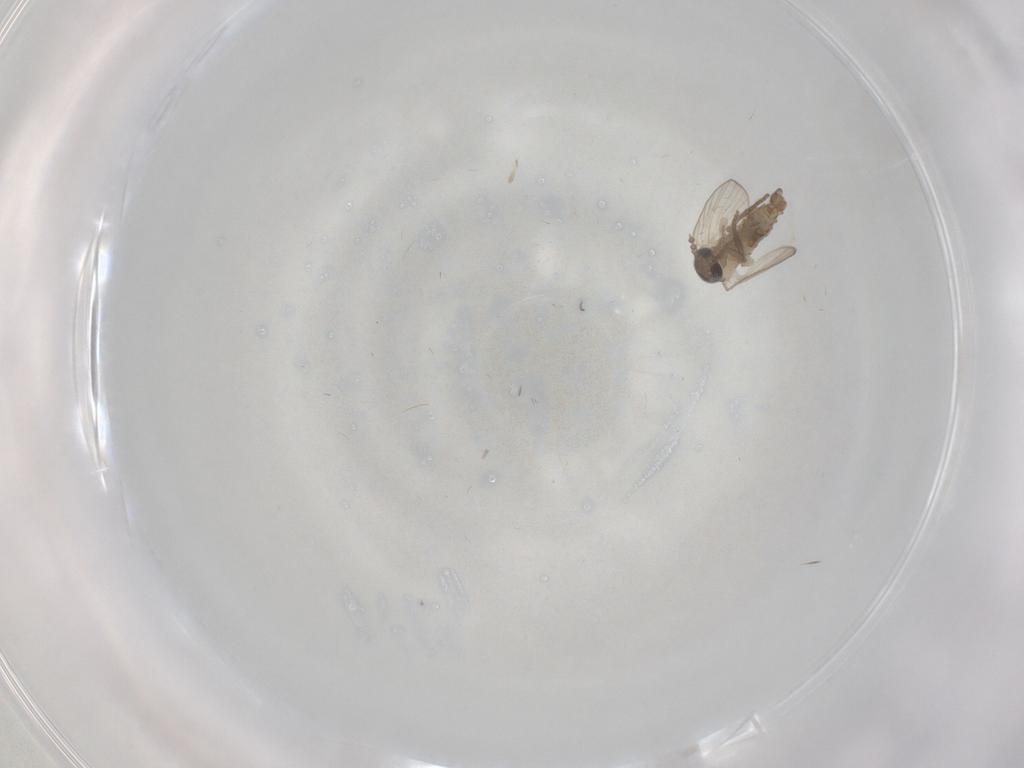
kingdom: Animalia
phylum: Arthropoda
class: Insecta
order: Diptera
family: Psychodidae
